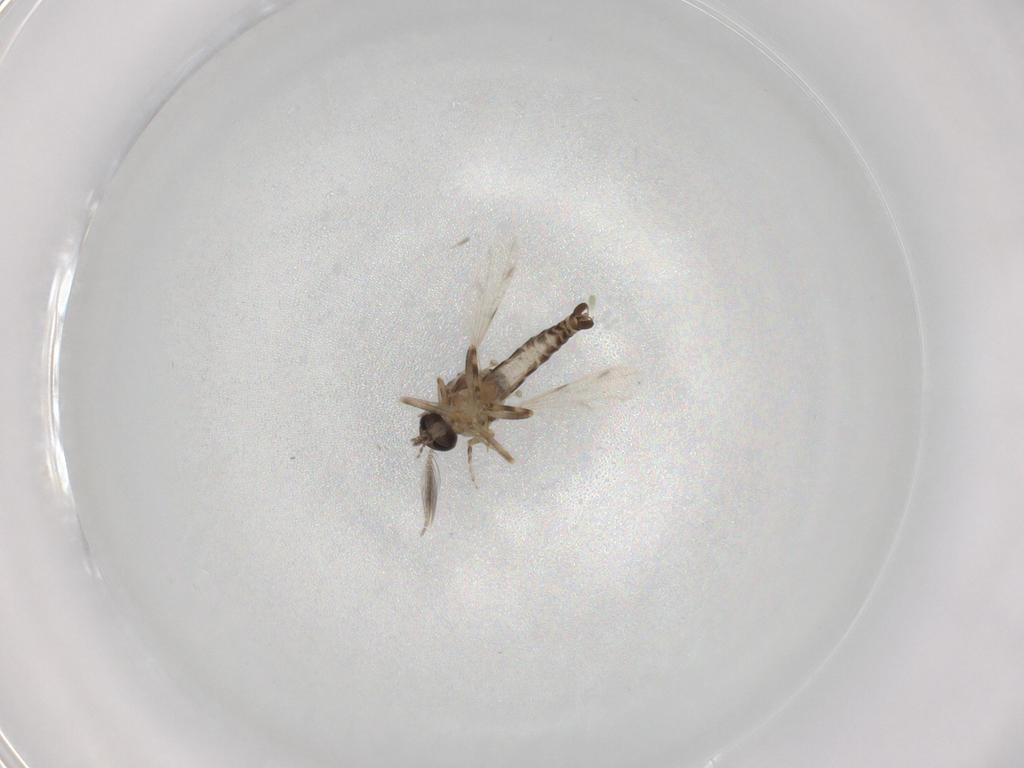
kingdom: Animalia
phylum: Arthropoda
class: Insecta
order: Diptera
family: Ceratopogonidae
